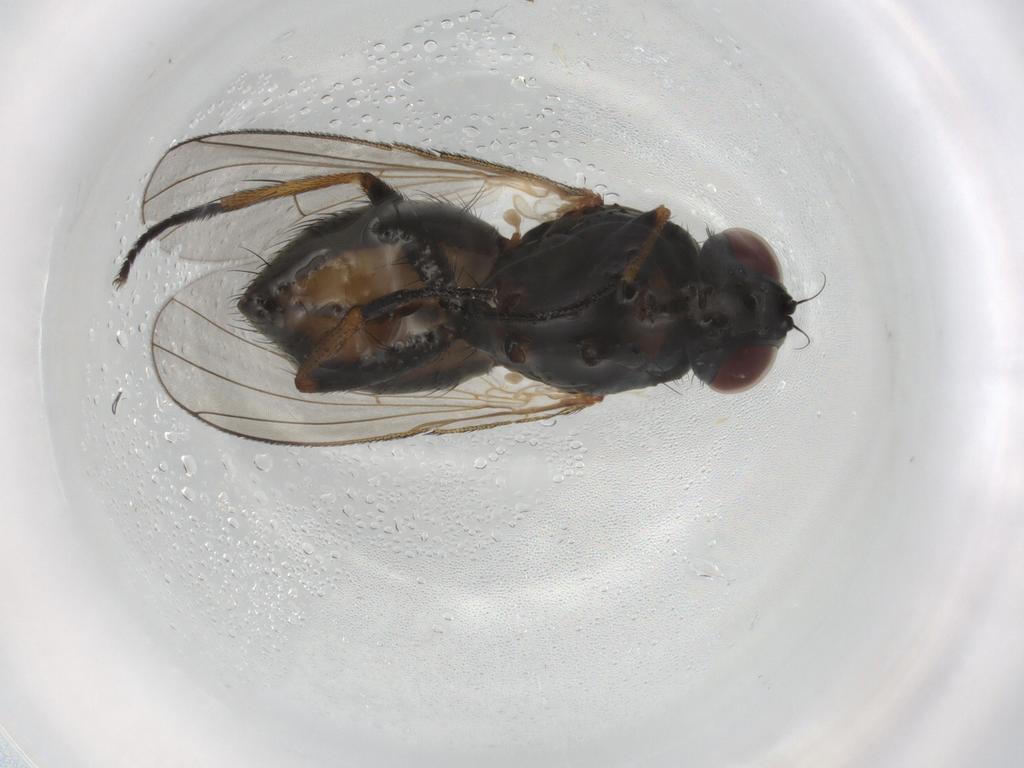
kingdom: Animalia
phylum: Arthropoda
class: Insecta
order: Diptera
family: Muscidae
